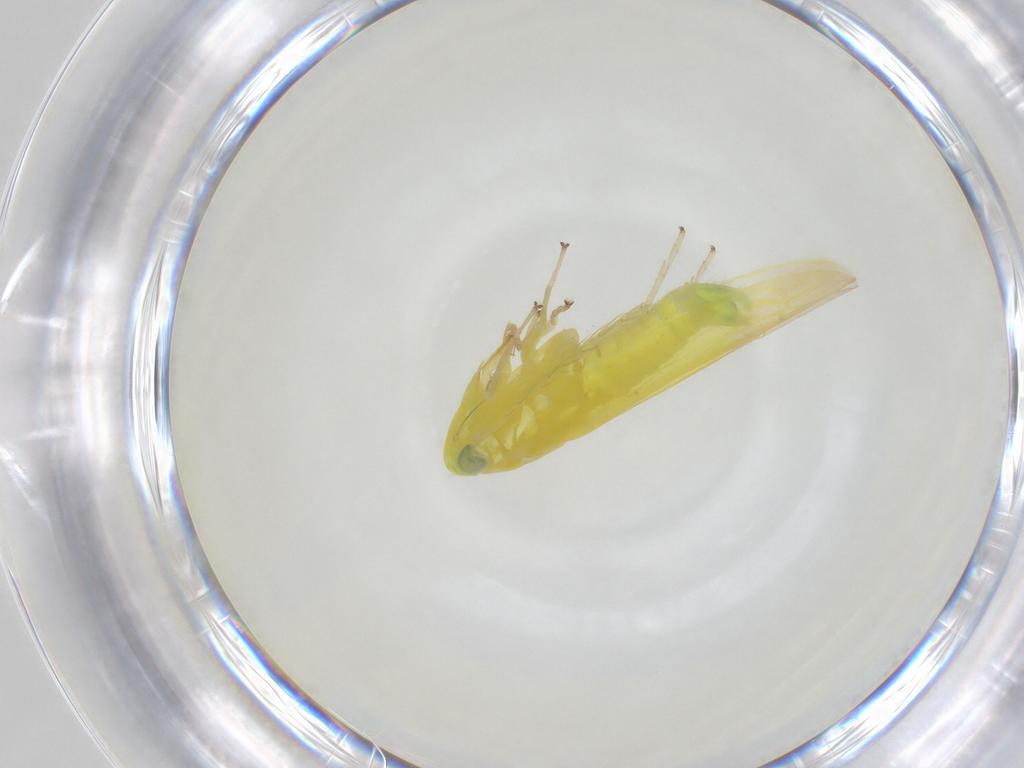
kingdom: Animalia
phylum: Arthropoda
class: Insecta
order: Hemiptera
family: Cicadellidae
